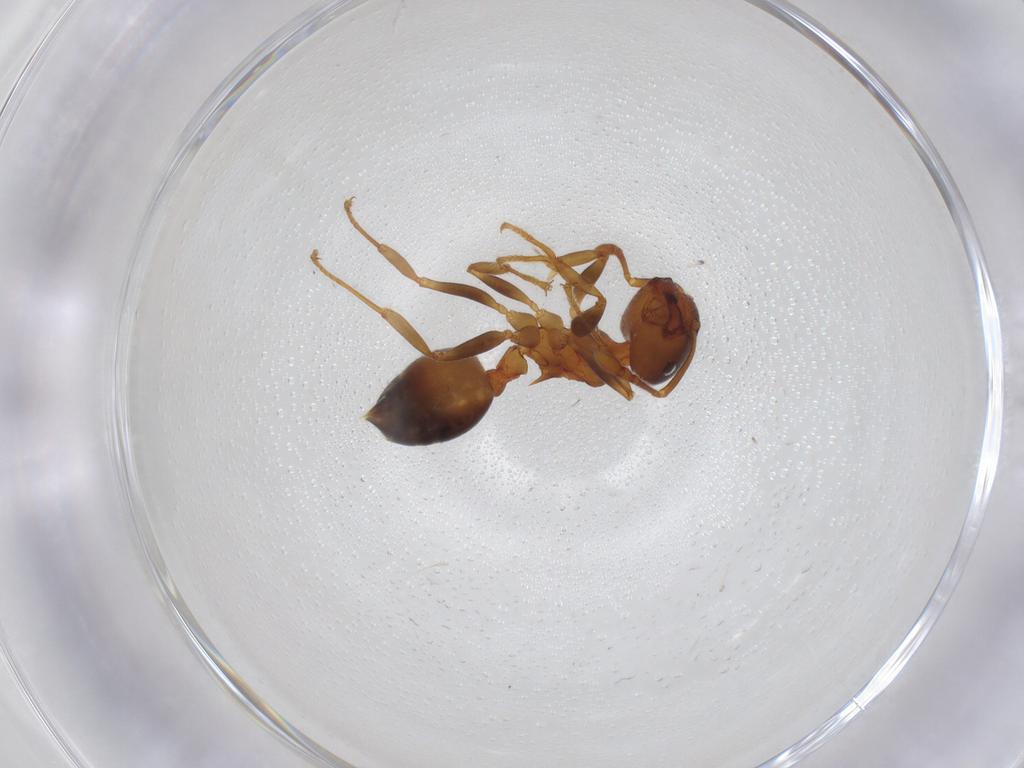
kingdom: Animalia
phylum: Arthropoda
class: Insecta
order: Hymenoptera
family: Formicidae
